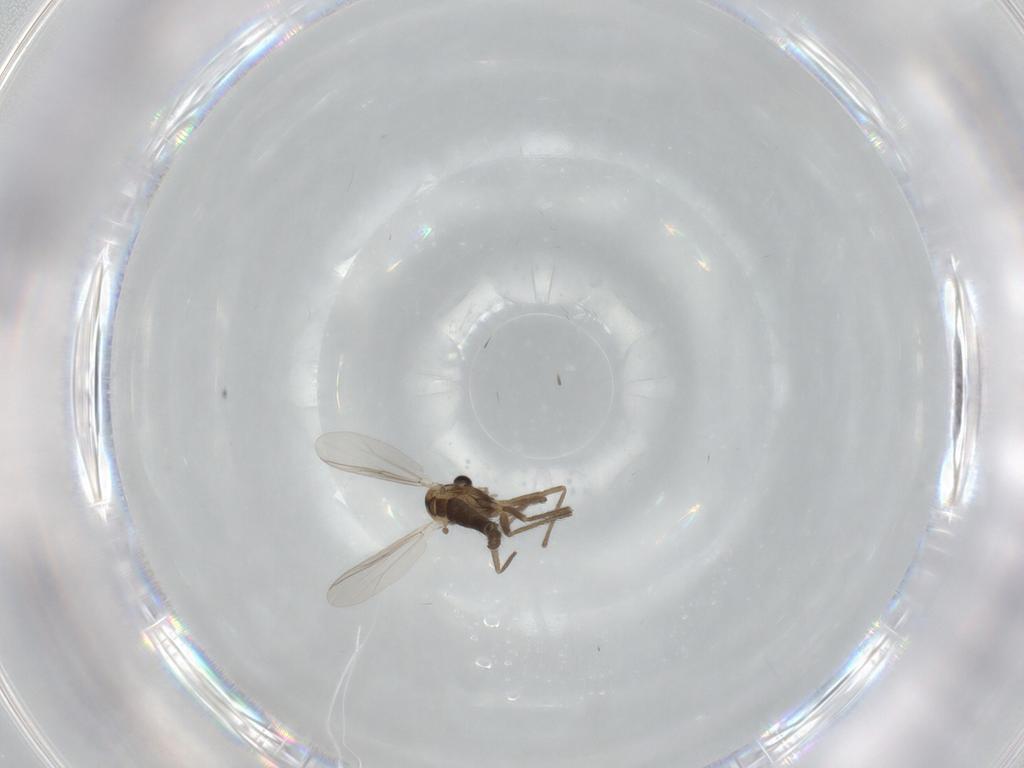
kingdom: Animalia
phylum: Arthropoda
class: Insecta
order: Diptera
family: Chironomidae
